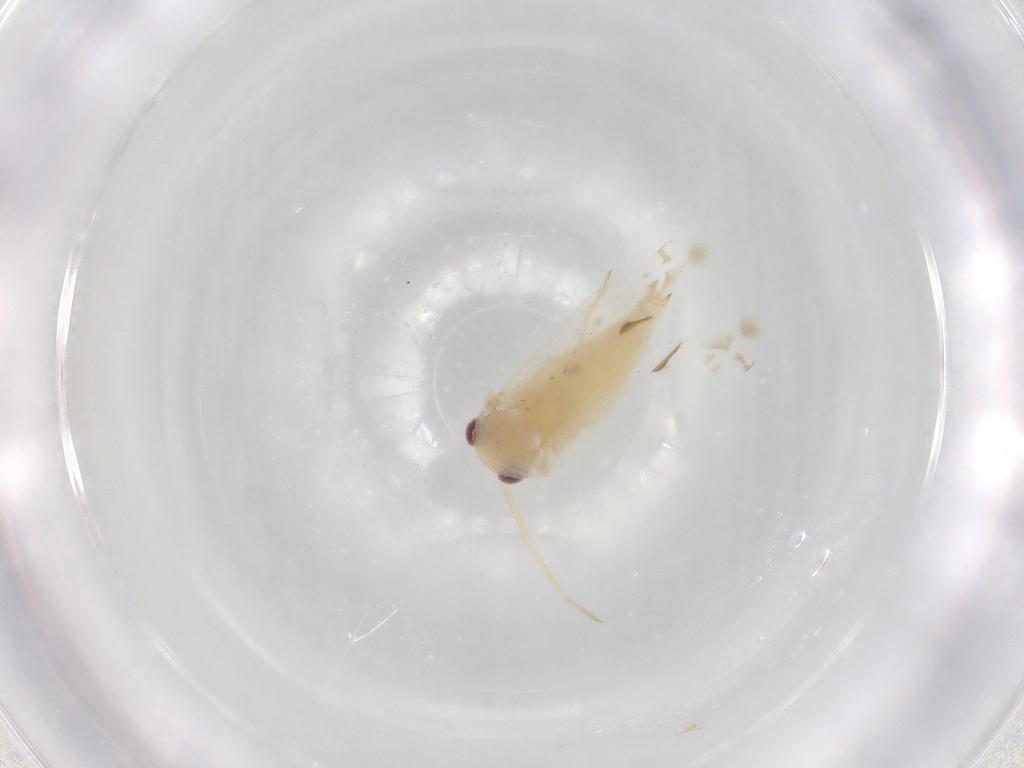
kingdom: Animalia
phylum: Arthropoda
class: Insecta
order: Hemiptera
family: Miridae
